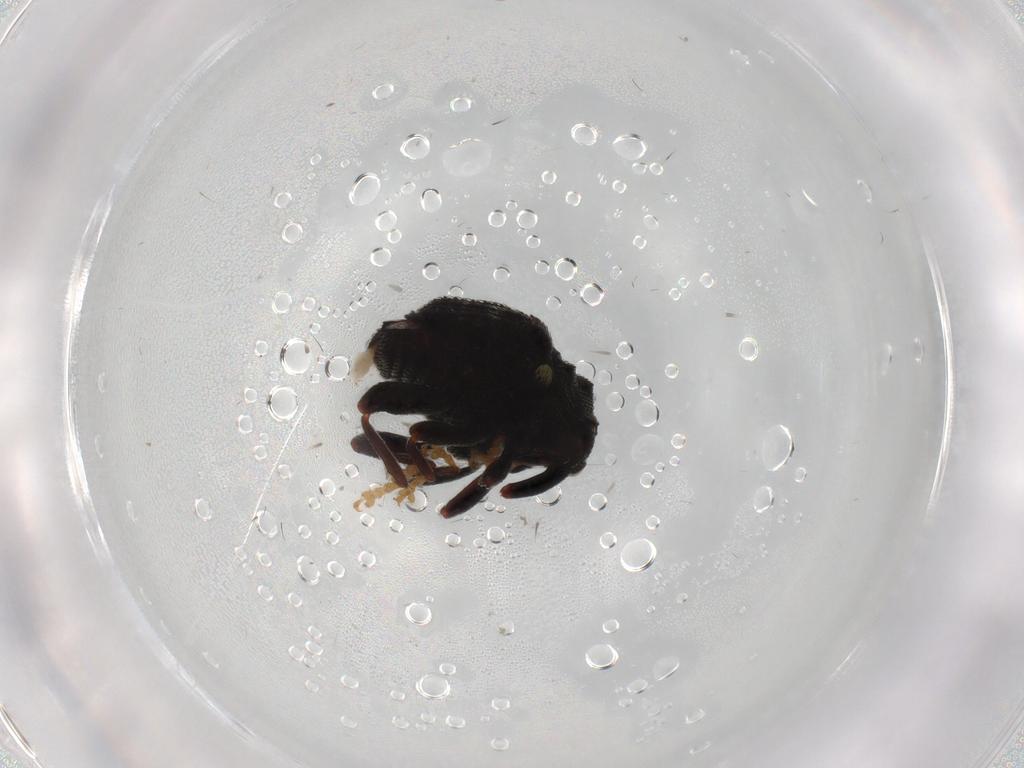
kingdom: Animalia
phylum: Arthropoda
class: Insecta
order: Coleoptera
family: Curculionidae
